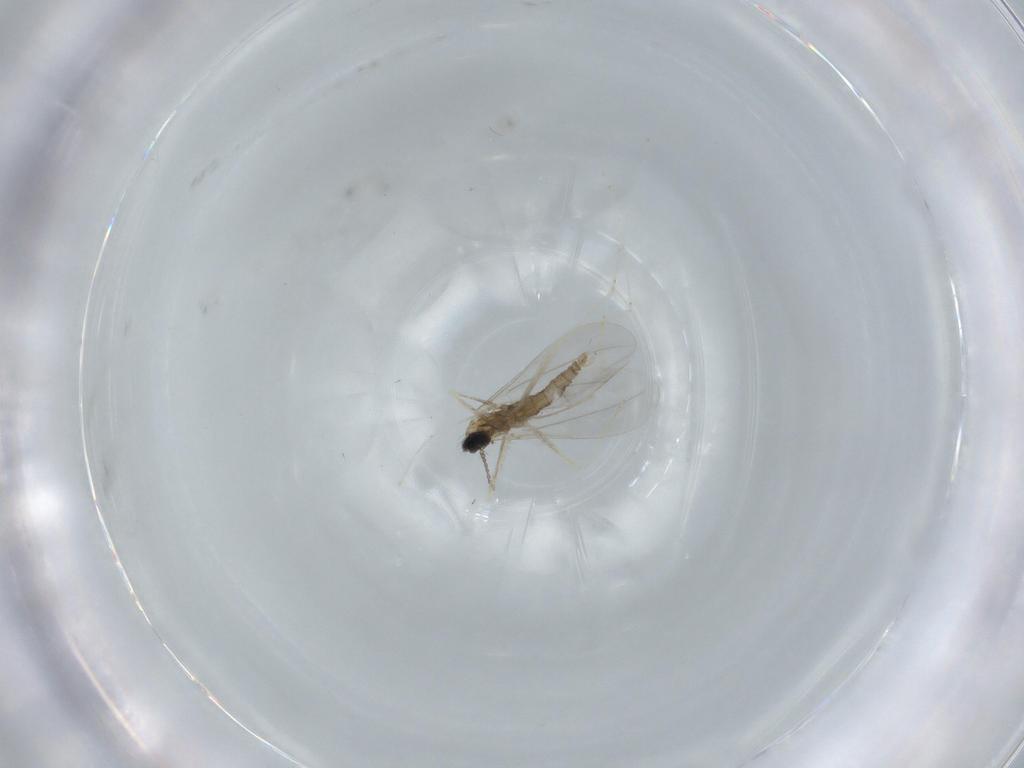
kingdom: Animalia
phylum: Arthropoda
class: Insecta
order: Diptera
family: Cecidomyiidae
